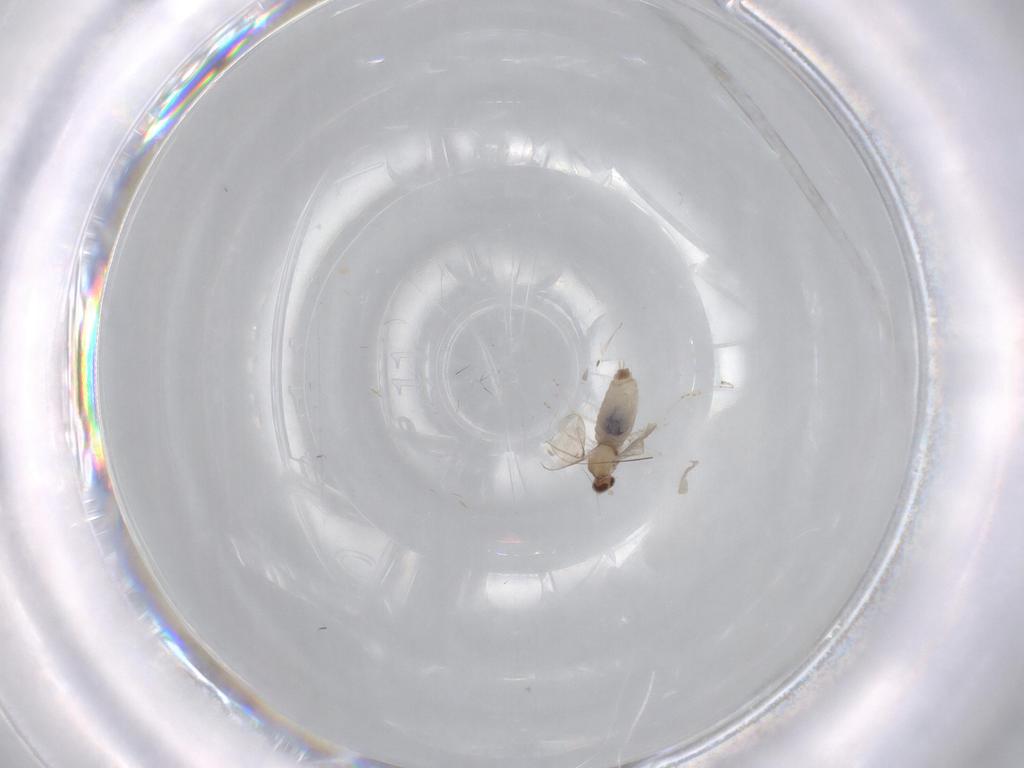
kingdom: Animalia
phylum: Arthropoda
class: Insecta
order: Diptera
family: Cecidomyiidae
